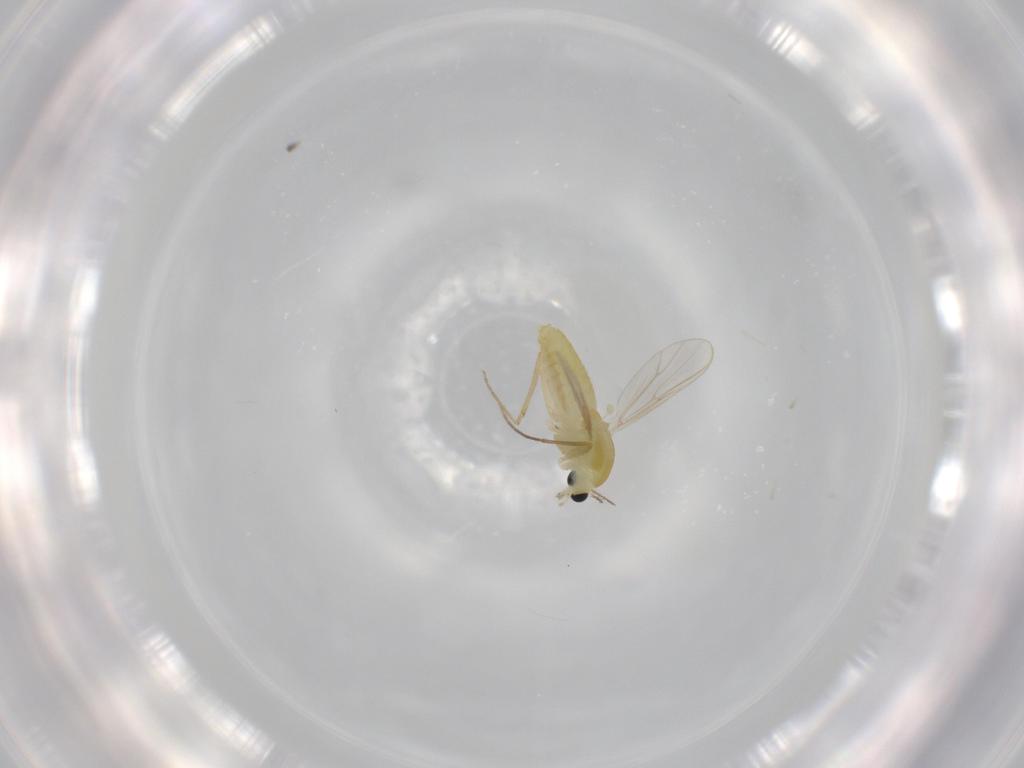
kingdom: Animalia
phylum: Arthropoda
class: Insecta
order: Diptera
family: Chironomidae
